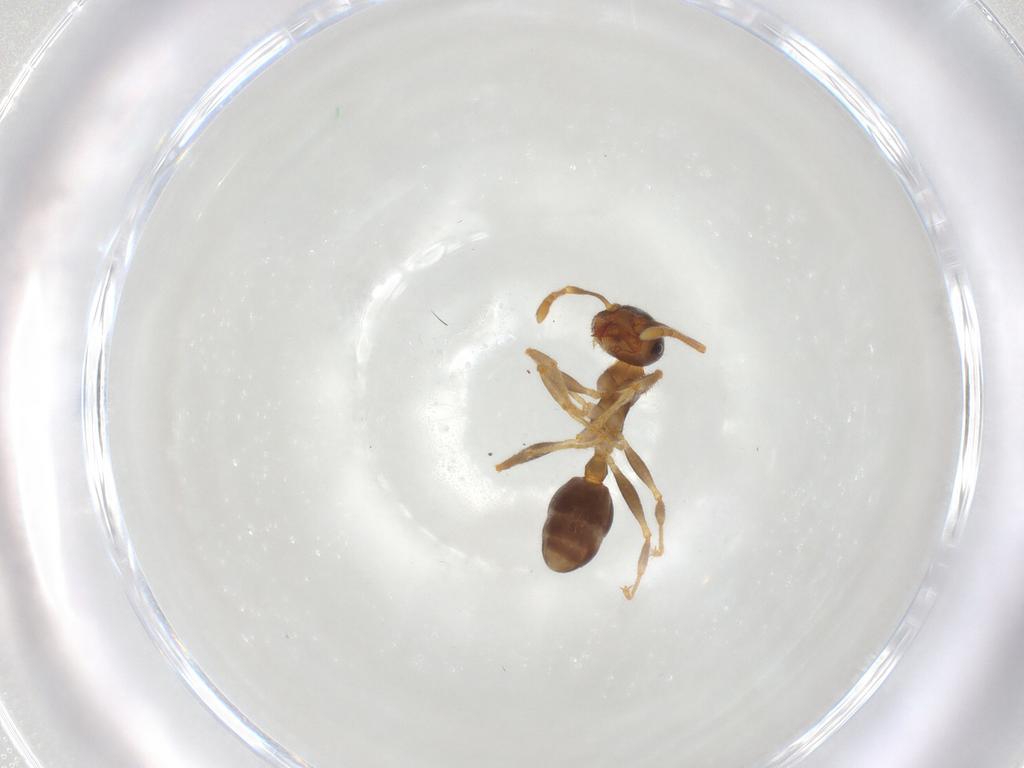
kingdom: Animalia
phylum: Arthropoda
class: Insecta
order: Hymenoptera
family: Formicidae
